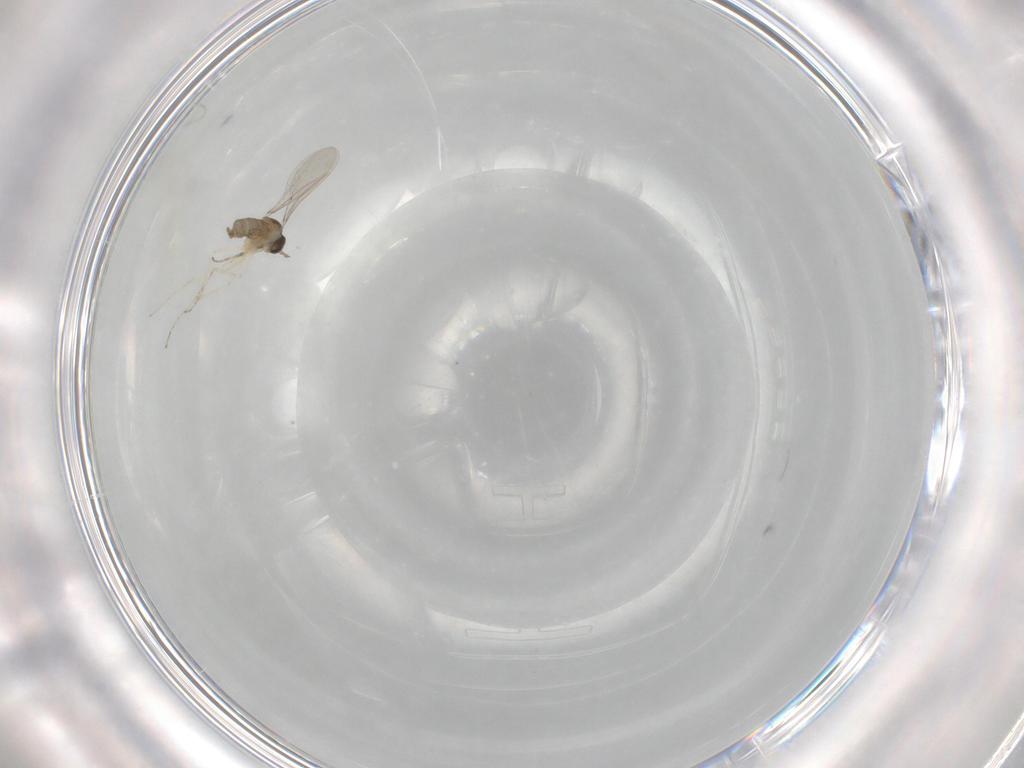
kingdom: Animalia
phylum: Arthropoda
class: Insecta
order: Diptera
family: Cecidomyiidae
